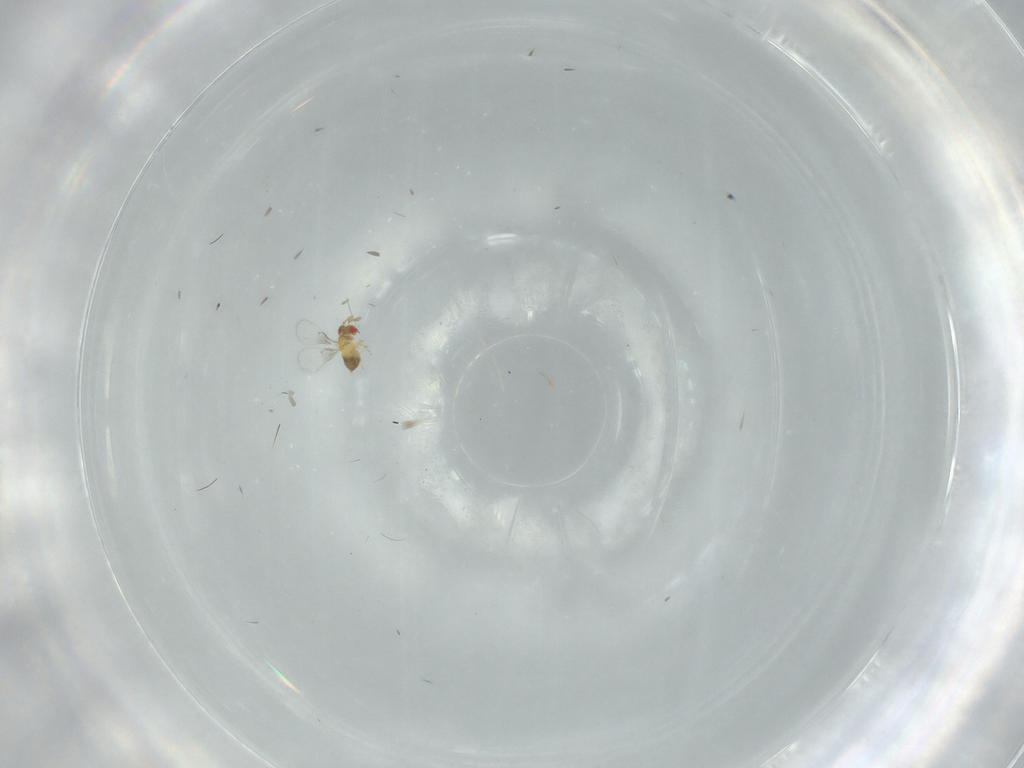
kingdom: Animalia
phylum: Arthropoda
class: Insecta
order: Hymenoptera
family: Trichogrammatidae
